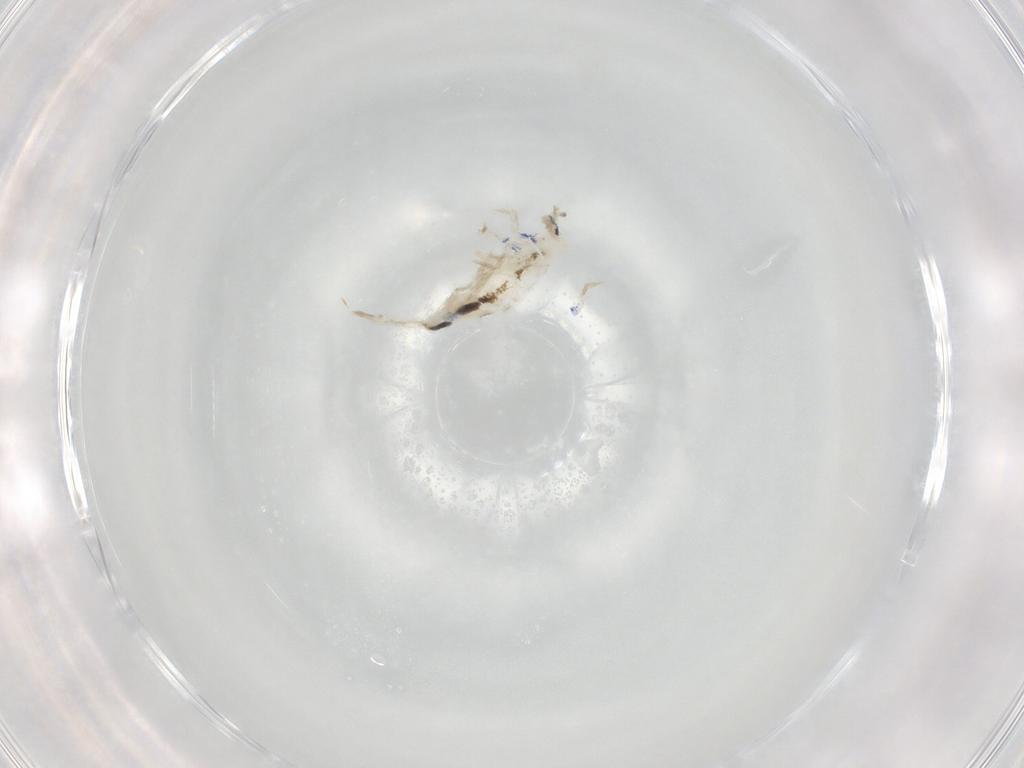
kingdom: Animalia
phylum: Arthropoda
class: Collembola
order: Entomobryomorpha
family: Entomobryidae
